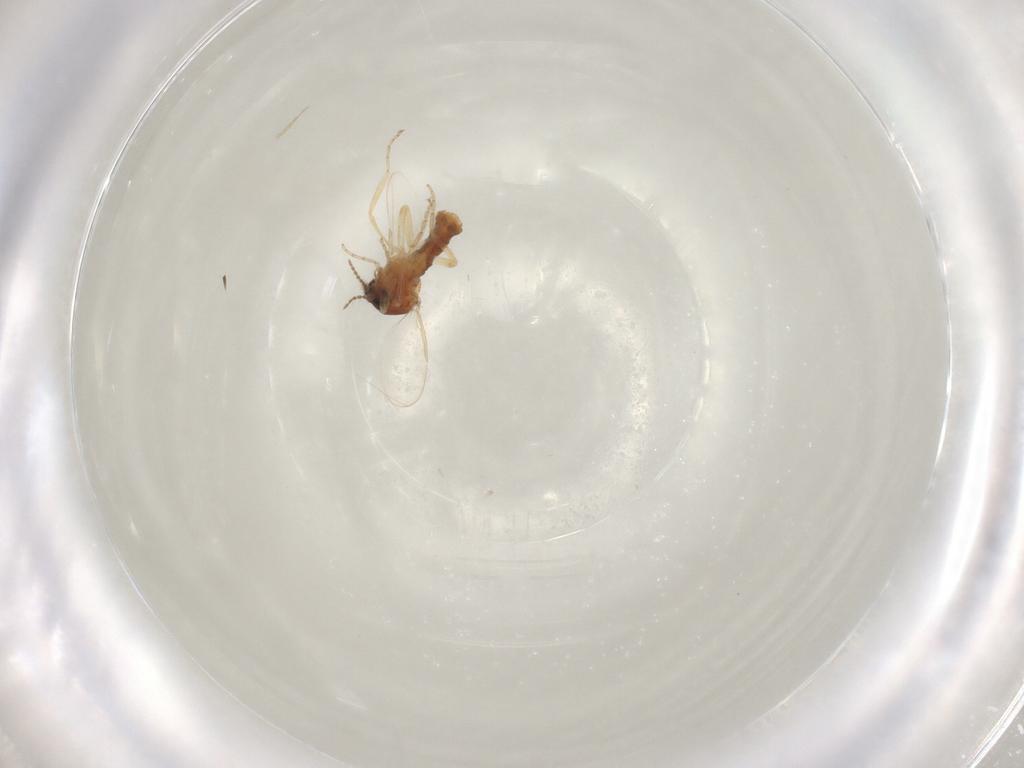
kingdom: Animalia
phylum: Arthropoda
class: Insecta
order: Diptera
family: Ceratopogonidae
